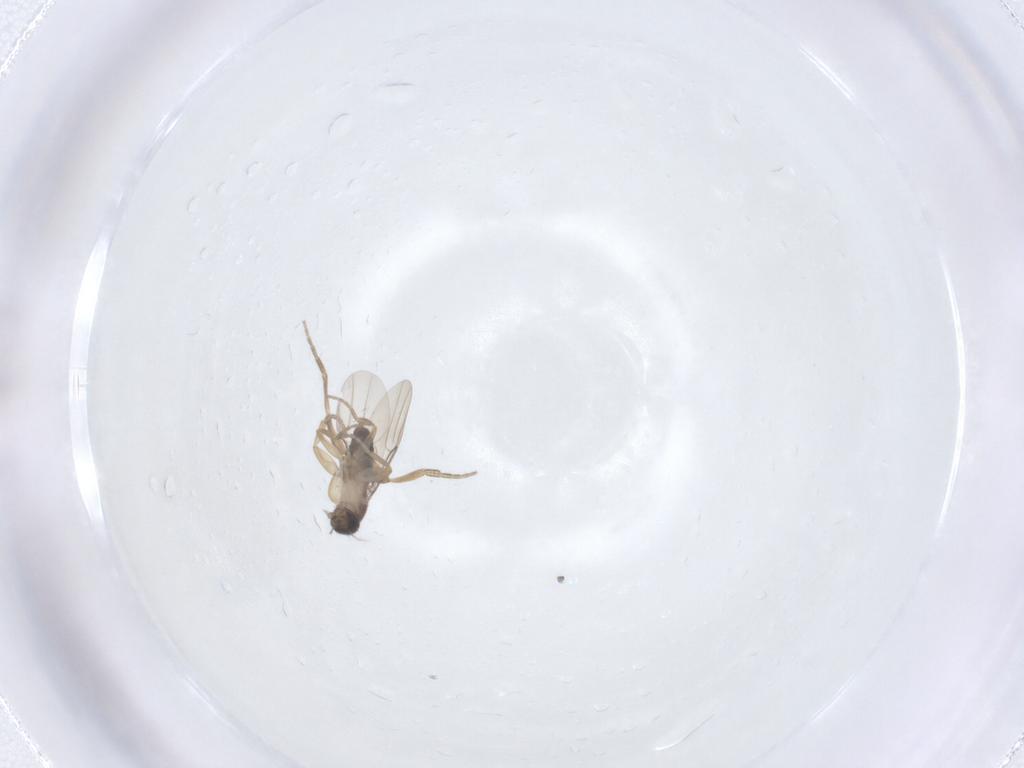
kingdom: Animalia
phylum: Arthropoda
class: Insecta
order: Diptera
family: Phoridae
